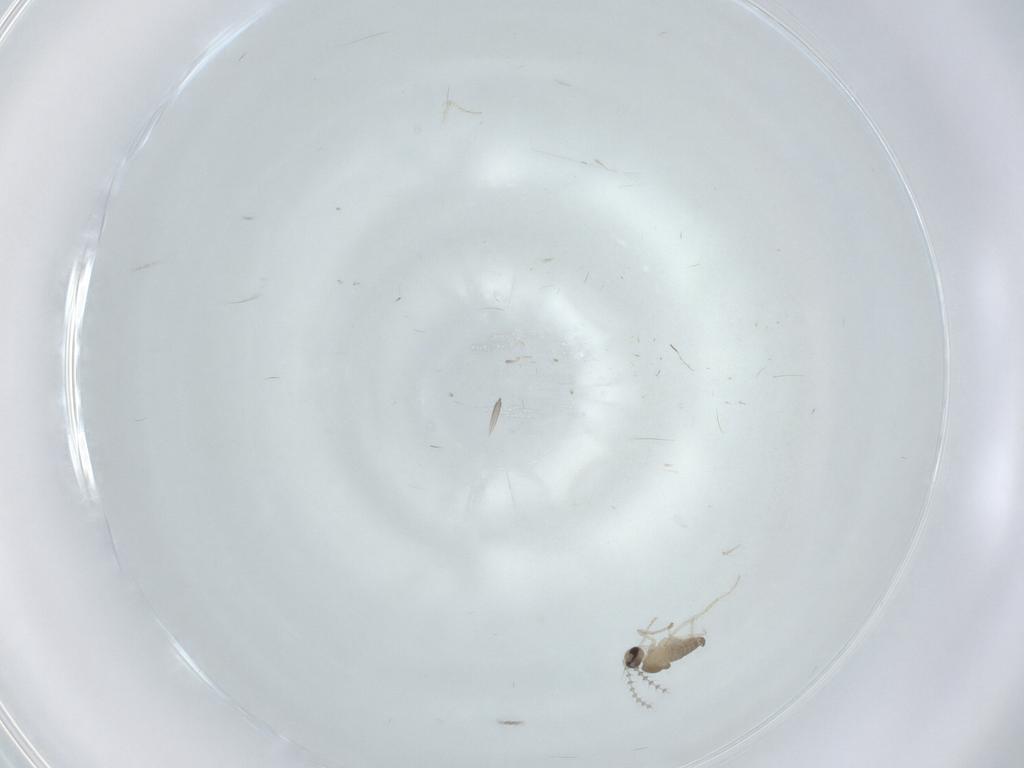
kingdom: Animalia
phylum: Arthropoda
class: Insecta
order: Diptera
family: Cecidomyiidae
